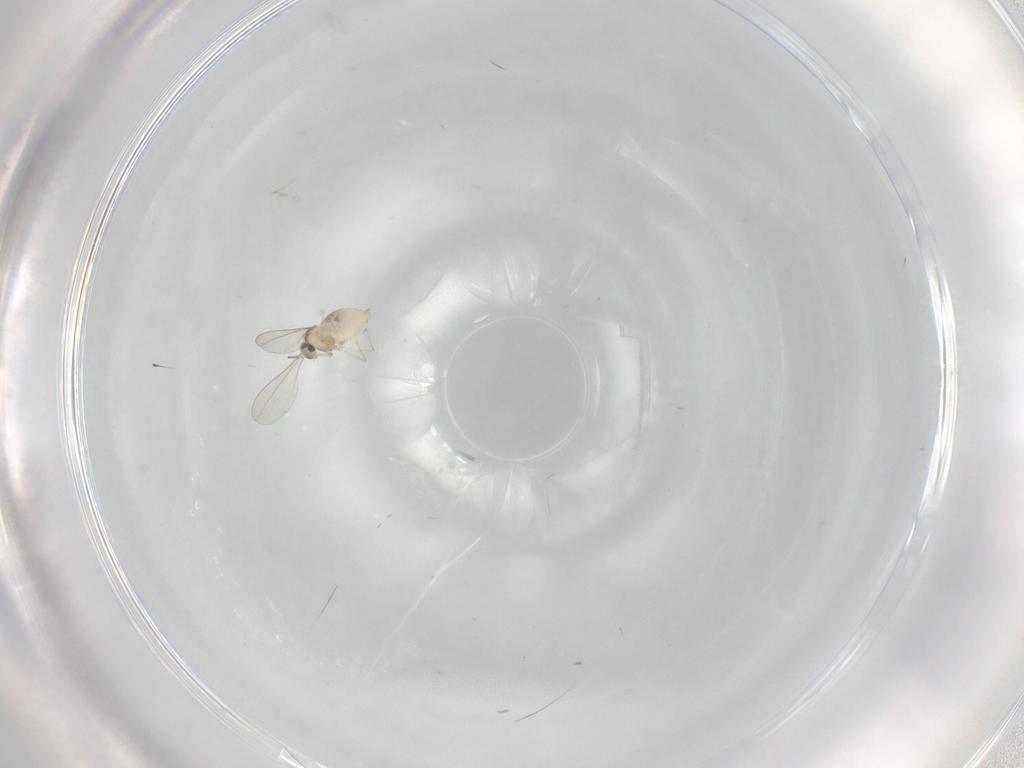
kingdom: Animalia
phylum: Arthropoda
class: Insecta
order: Diptera
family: Cecidomyiidae
